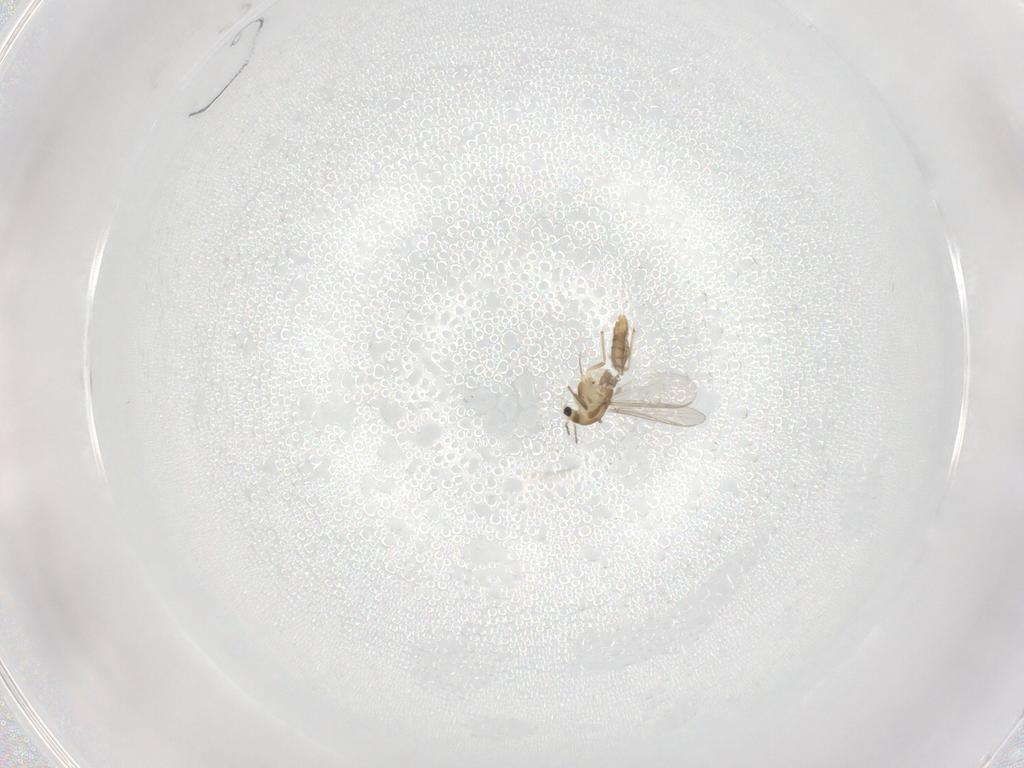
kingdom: Animalia
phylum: Arthropoda
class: Insecta
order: Diptera
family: Chironomidae
